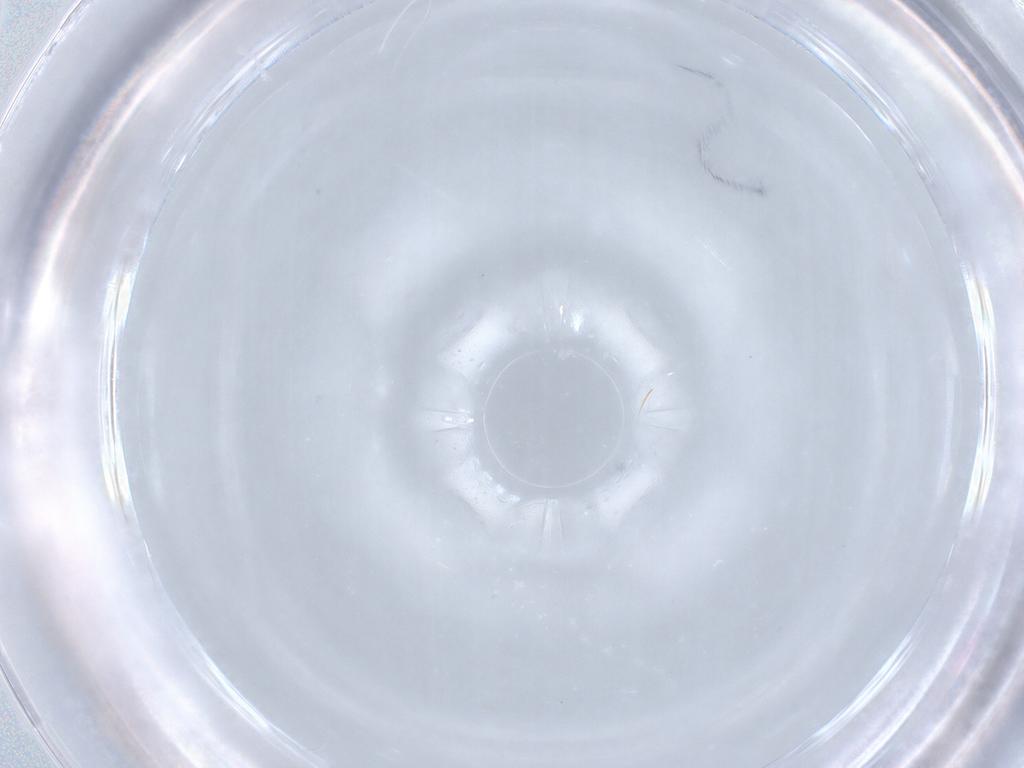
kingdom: Animalia
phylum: Arthropoda
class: Insecta
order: Diptera
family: Cecidomyiidae
